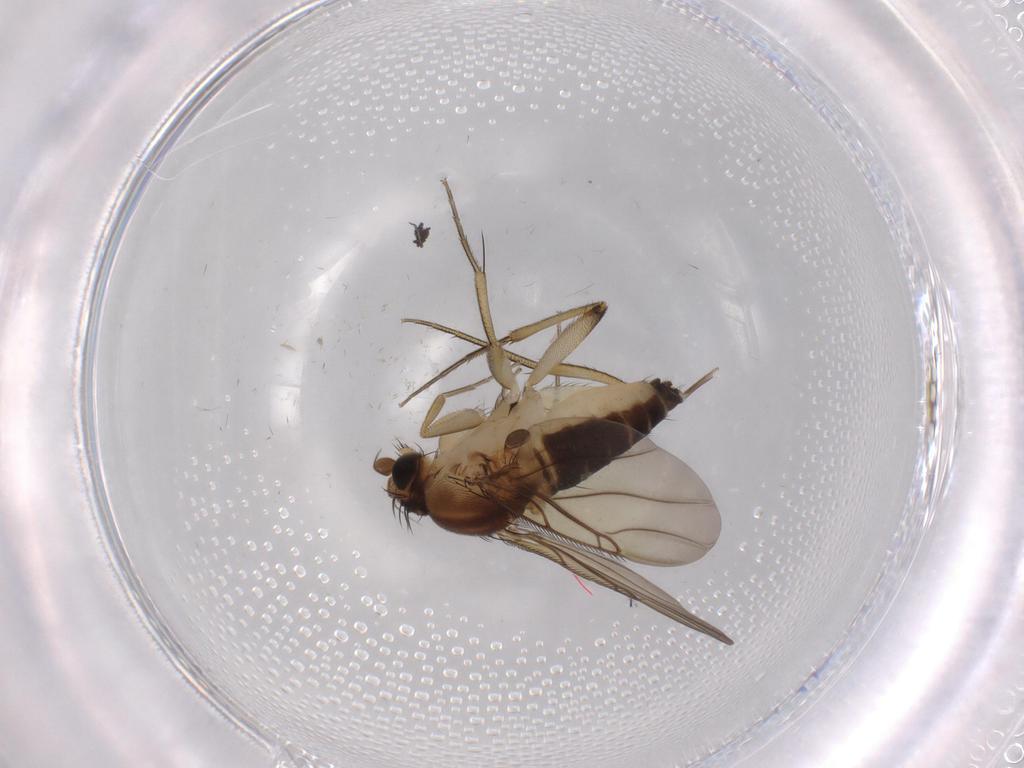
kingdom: Animalia
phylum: Arthropoda
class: Insecta
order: Diptera
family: Phoridae
